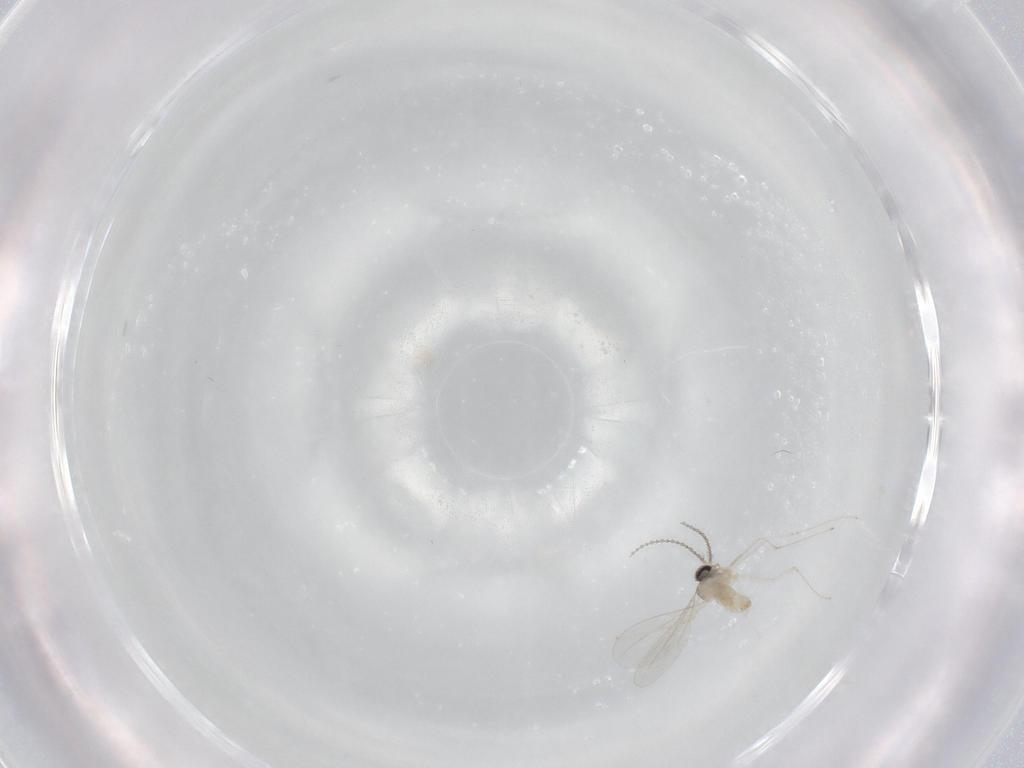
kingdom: Animalia
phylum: Arthropoda
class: Insecta
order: Diptera
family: Cecidomyiidae
